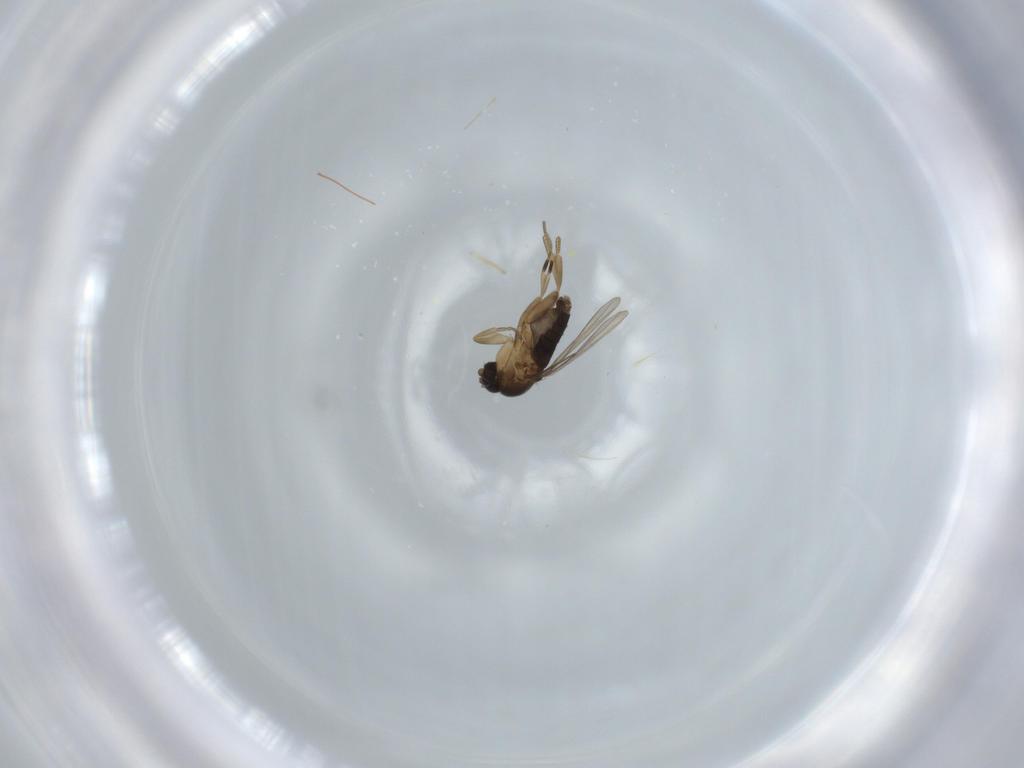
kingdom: Animalia
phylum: Arthropoda
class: Insecta
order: Diptera
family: Phoridae
